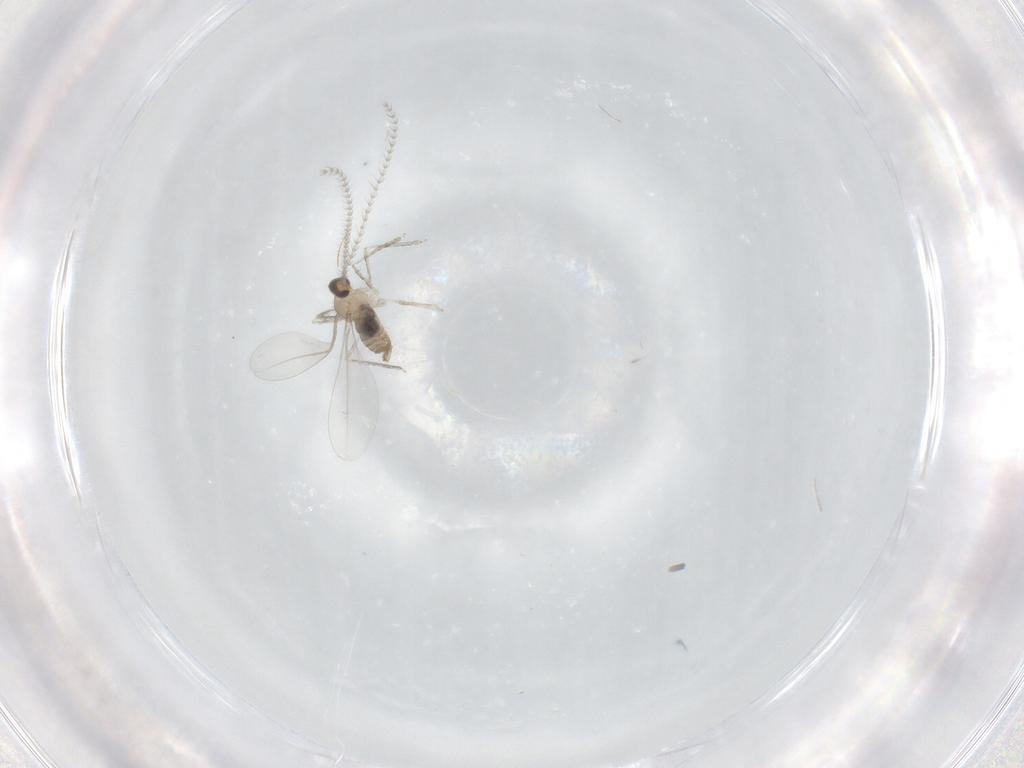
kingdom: Animalia
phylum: Arthropoda
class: Insecta
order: Diptera
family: Cecidomyiidae
